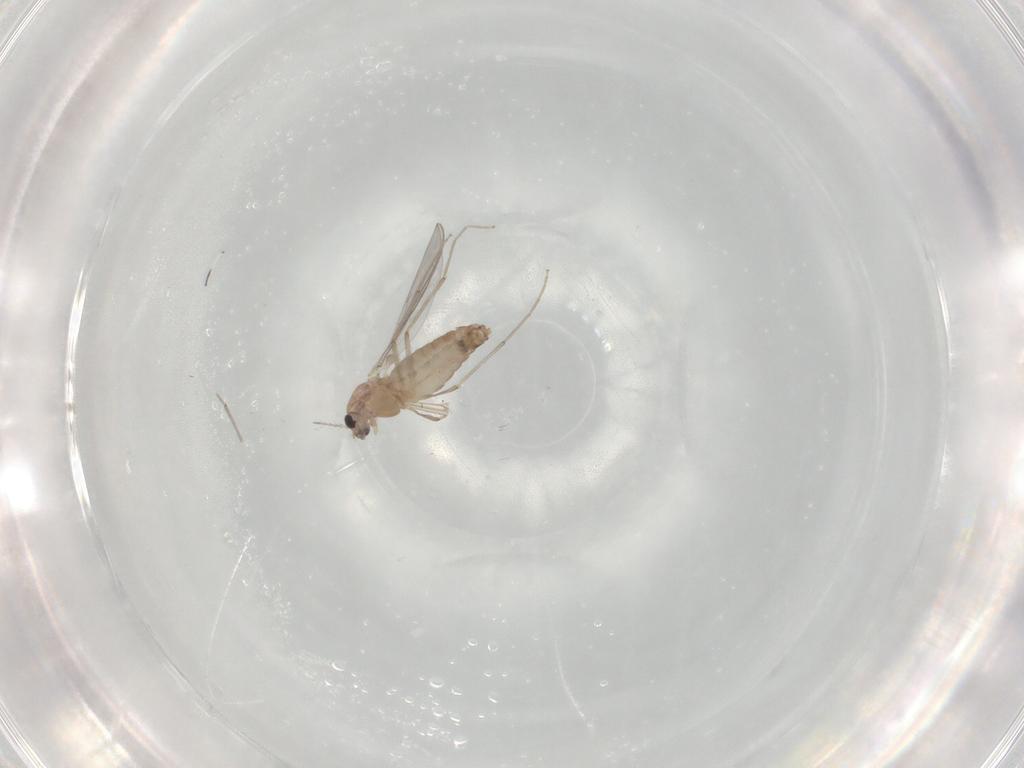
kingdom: Animalia
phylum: Arthropoda
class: Insecta
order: Diptera
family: Chironomidae
